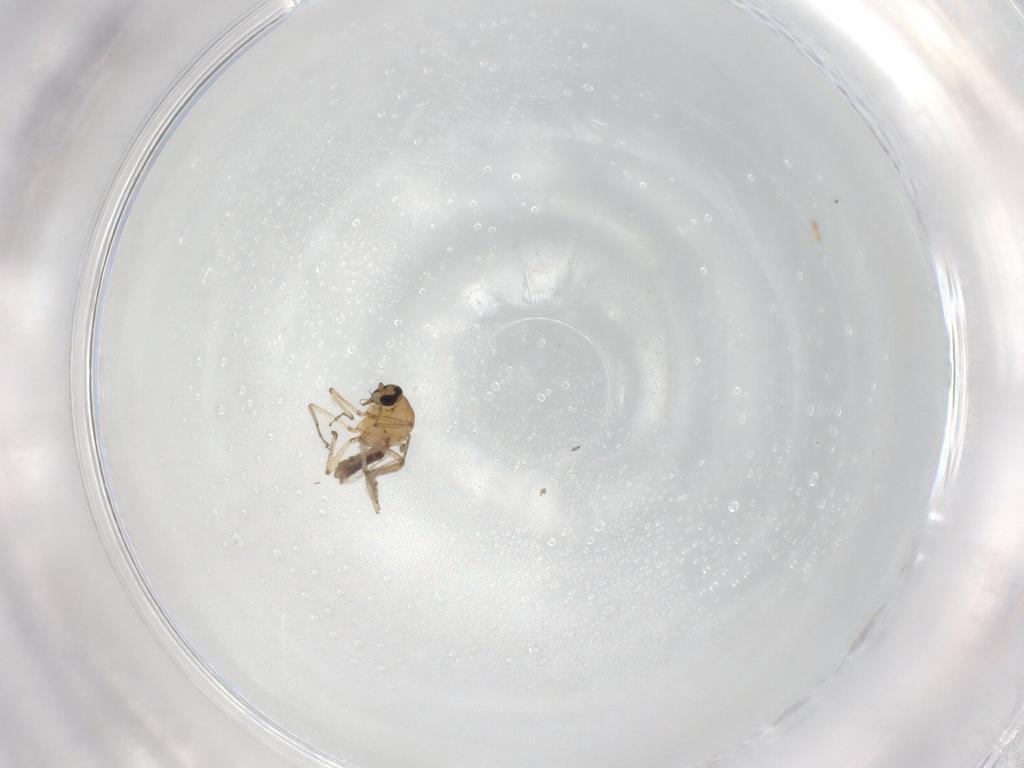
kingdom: Animalia
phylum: Arthropoda
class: Insecta
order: Diptera
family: Ceratopogonidae
